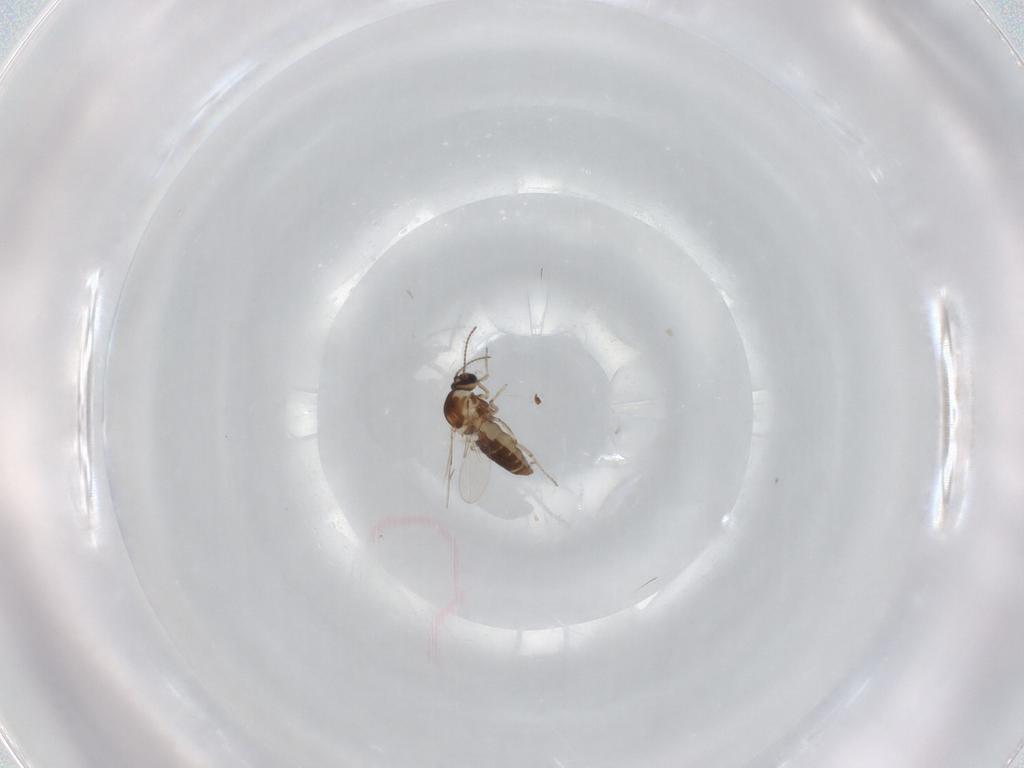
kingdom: Animalia
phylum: Arthropoda
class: Insecta
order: Diptera
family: Ceratopogonidae
